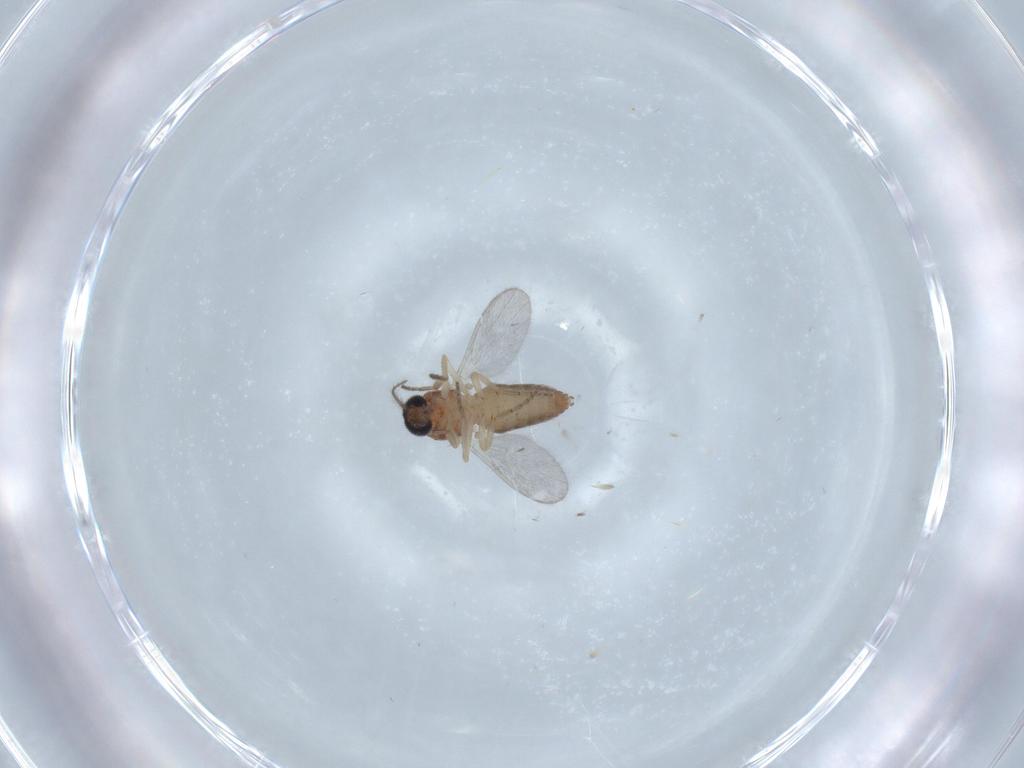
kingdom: Animalia
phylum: Arthropoda
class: Insecta
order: Diptera
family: Ceratopogonidae
